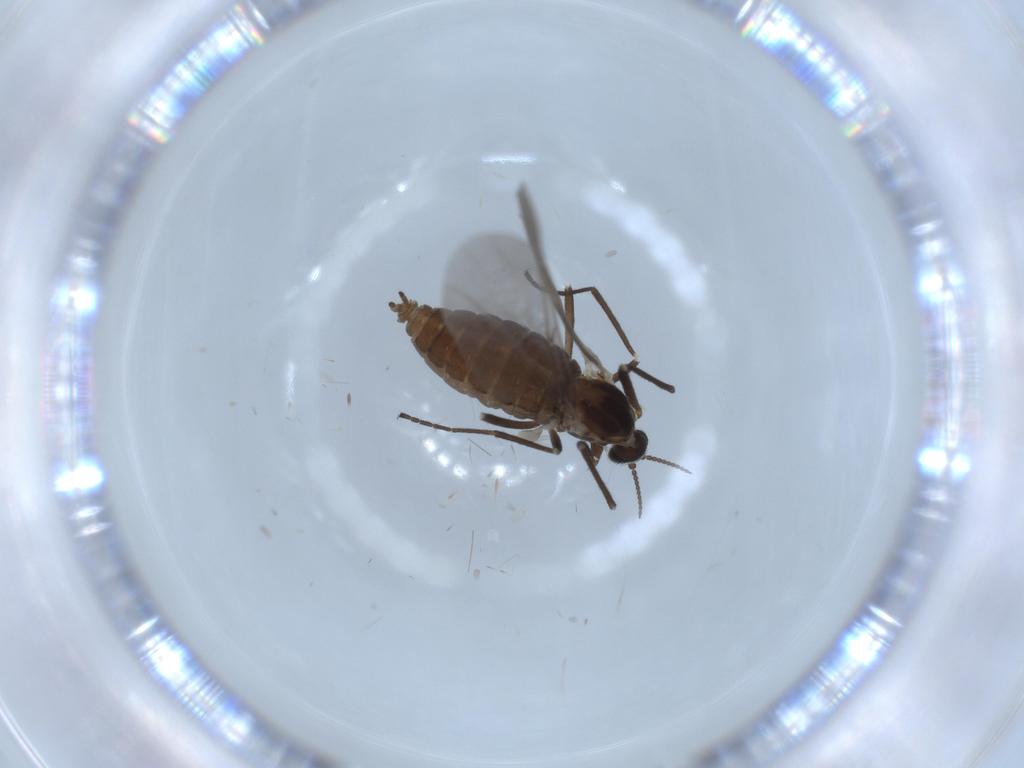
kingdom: Animalia
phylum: Arthropoda
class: Insecta
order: Diptera
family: Cecidomyiidae
